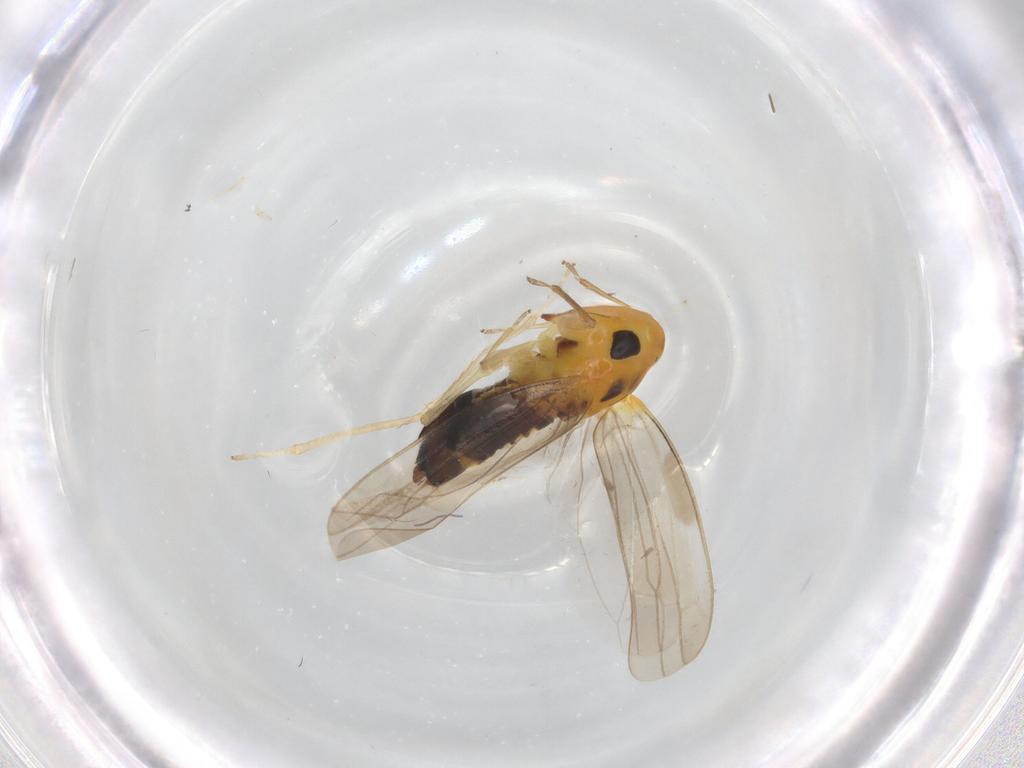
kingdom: Animalia
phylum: Arthropoda
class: Insecta
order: Hemiptera
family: Cicadellidae
